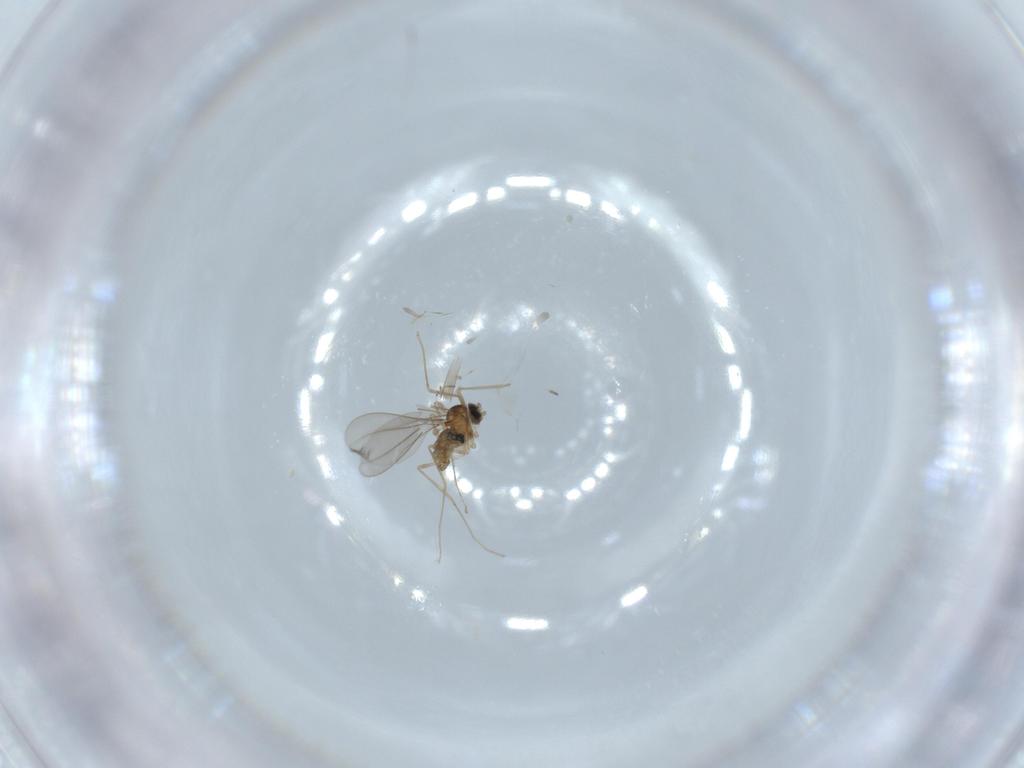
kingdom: Animalia
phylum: Arthropoda
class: Insecta
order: Diptera
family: Cecidomyiidae
